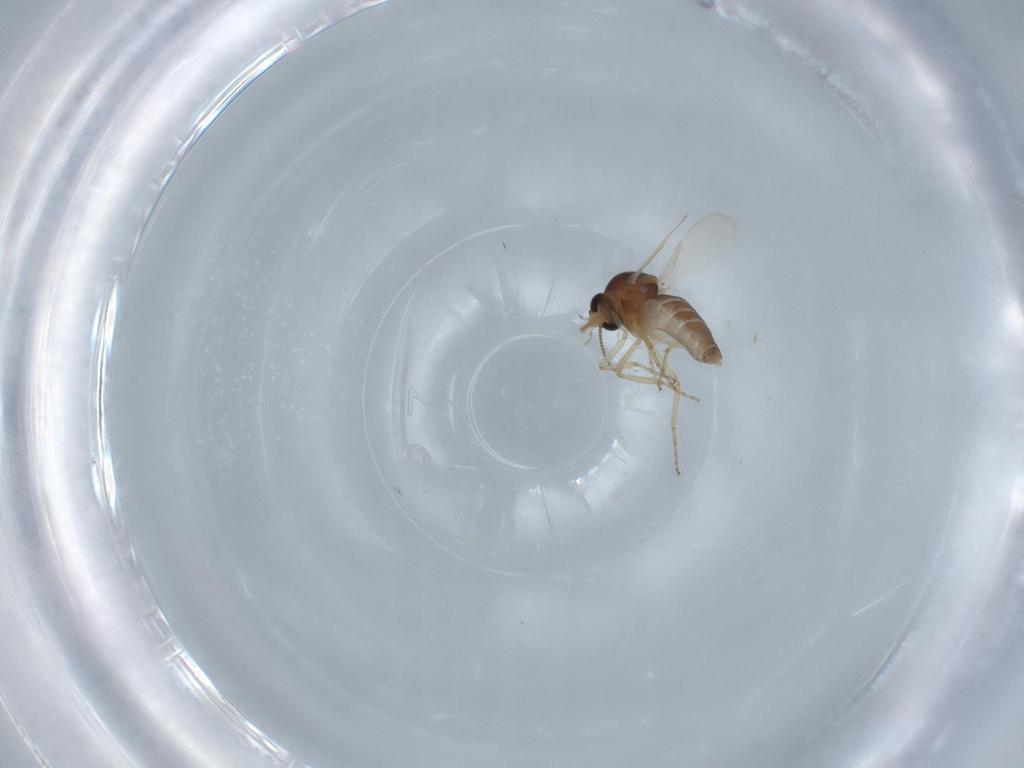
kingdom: Animalia
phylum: Arthropoda
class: Insecta
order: Diptera
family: Ceratopogonidae
